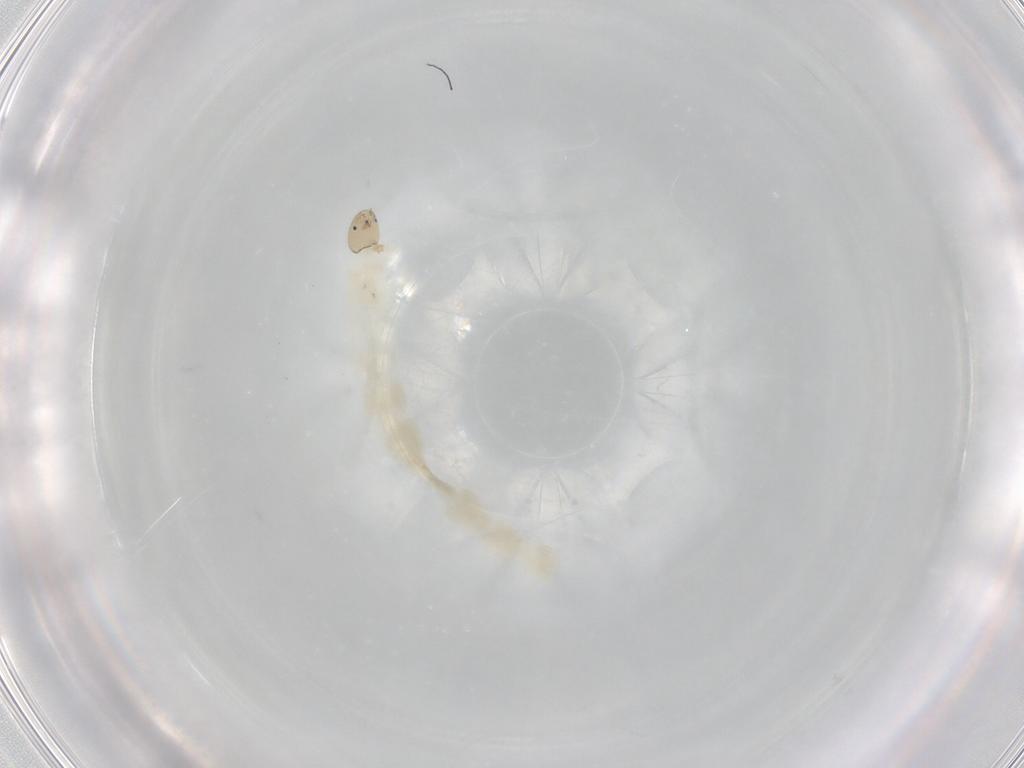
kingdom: Animalia
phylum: Arthropoda
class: Insecta
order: Diptera
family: Chironomidae
